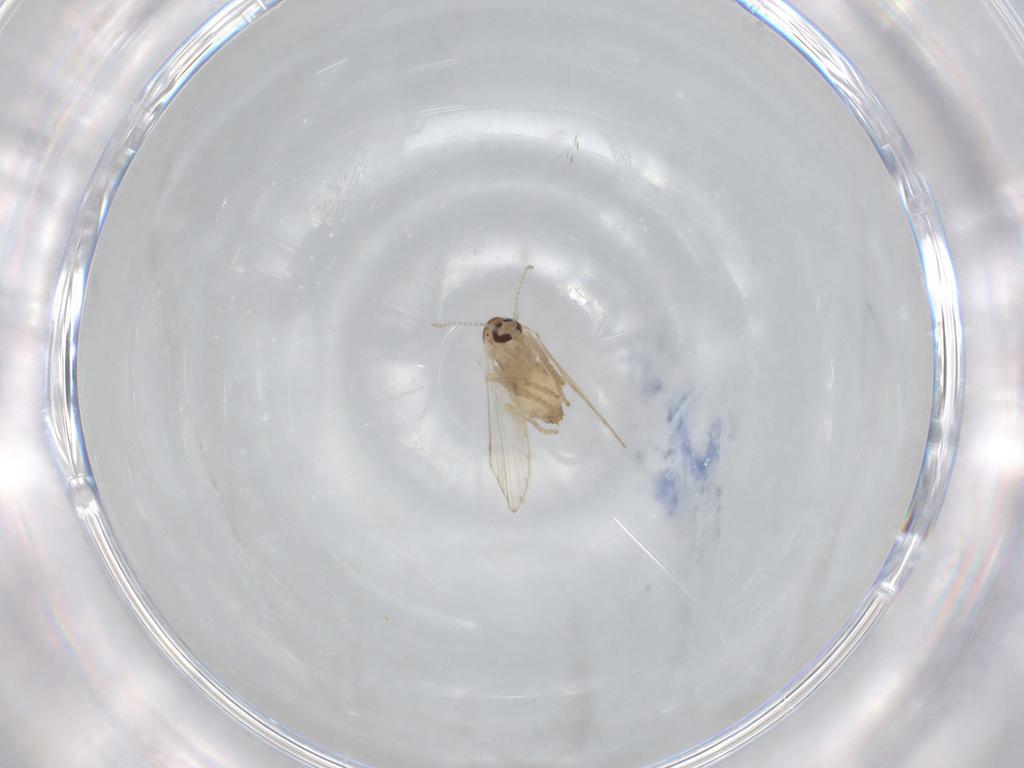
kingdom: Animalia
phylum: Arthropoda
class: Insecta
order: Diptera
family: Psychodidae
